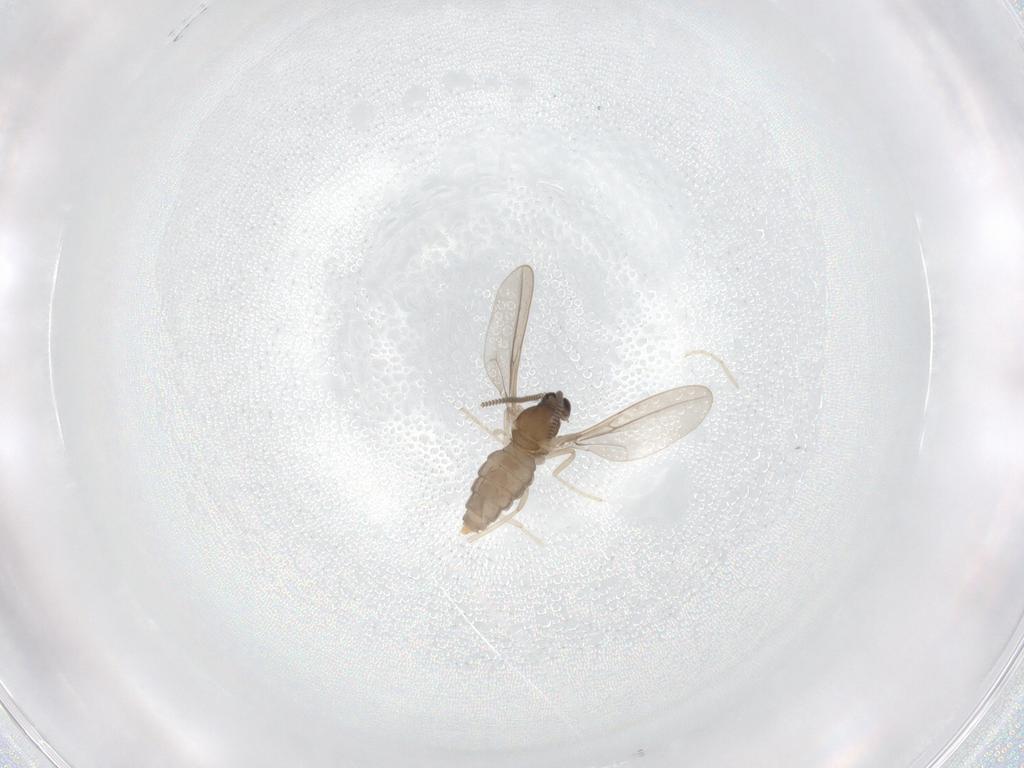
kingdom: Animalia
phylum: Arthropoda
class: Insecta
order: Diptera
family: Cecidomyiidae
